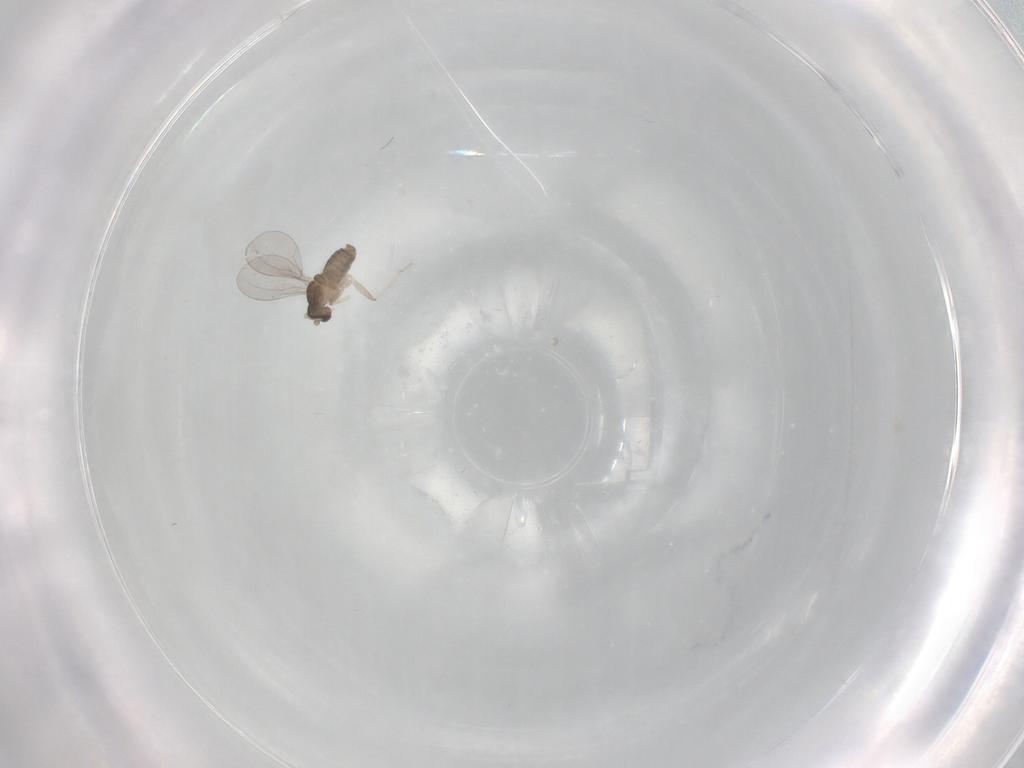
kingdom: Animalia
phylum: Arthropoda
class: Insecta
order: Diptera
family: Cecidomyiidae
